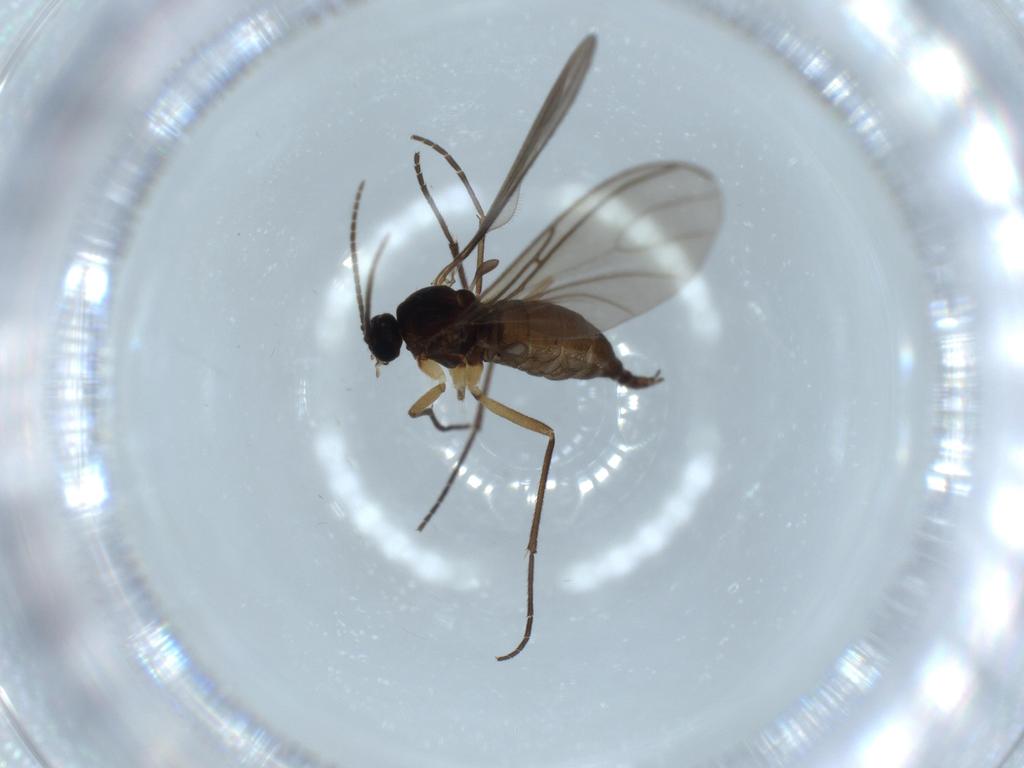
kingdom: Animalia
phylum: Arthropoda
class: Insecta
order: Diptera
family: Sciaridae
